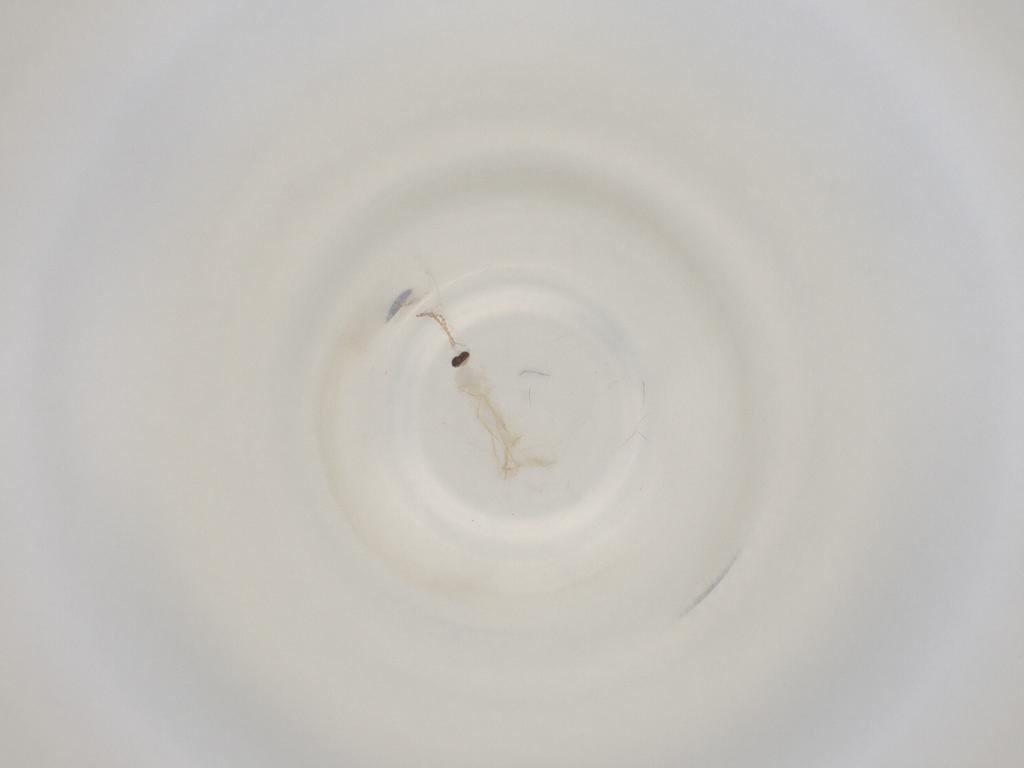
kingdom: Animalia
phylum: Arthropoda
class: Insecta
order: Diptera
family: Cecidomyiidae
